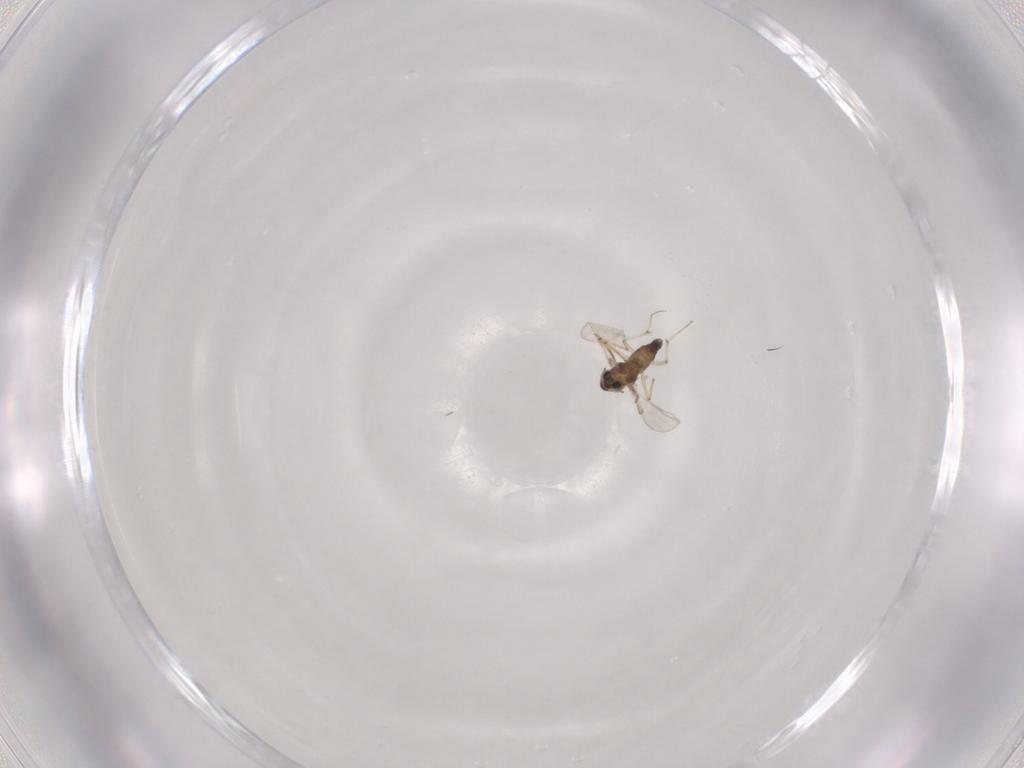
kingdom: Animalia
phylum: Arthropoda
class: Insecta
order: Diptera
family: Chironomidae
